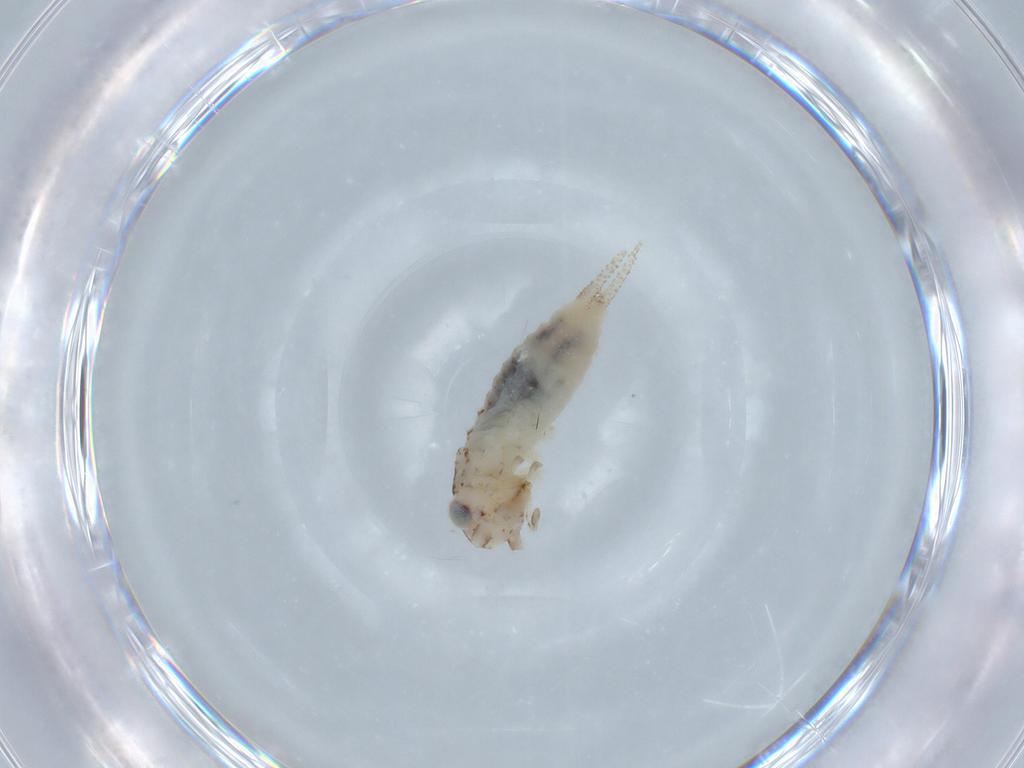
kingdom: Animalia
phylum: Arthropoda
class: Insecta
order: Orthoptera
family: Trigonidiidae
